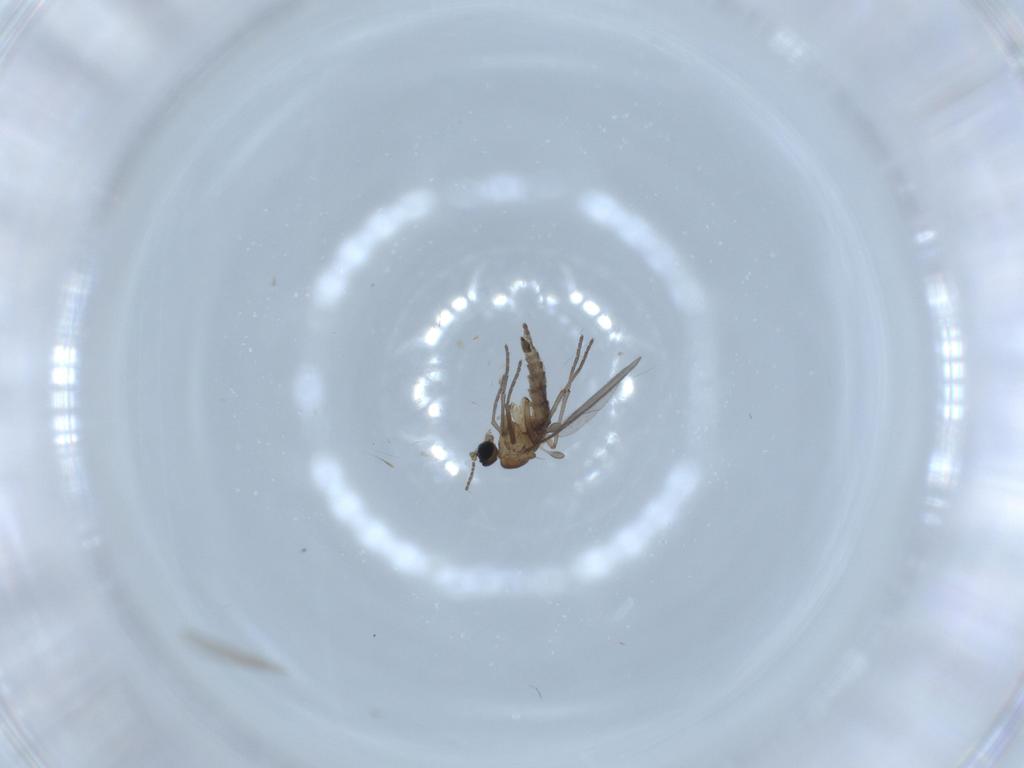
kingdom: Animalia
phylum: Arthropoda
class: Insecta
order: Diptera
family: Sciaridae
